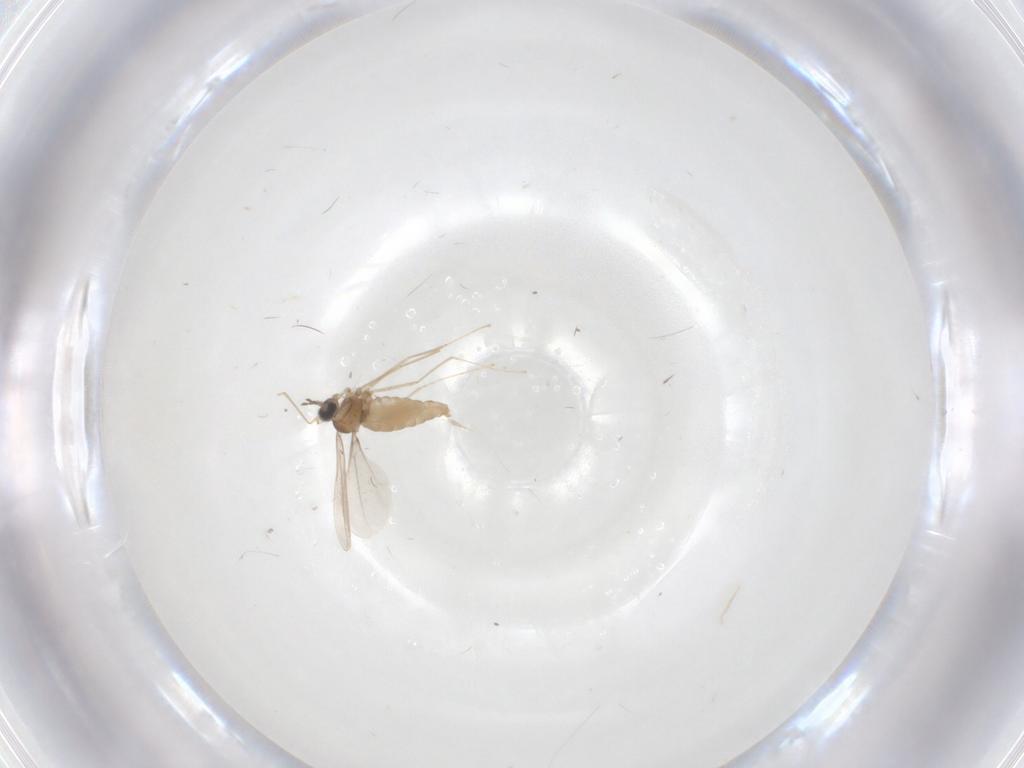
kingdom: Animalia
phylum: Arthropoda
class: Insecta
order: Diptera
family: Cecidomyiidae
